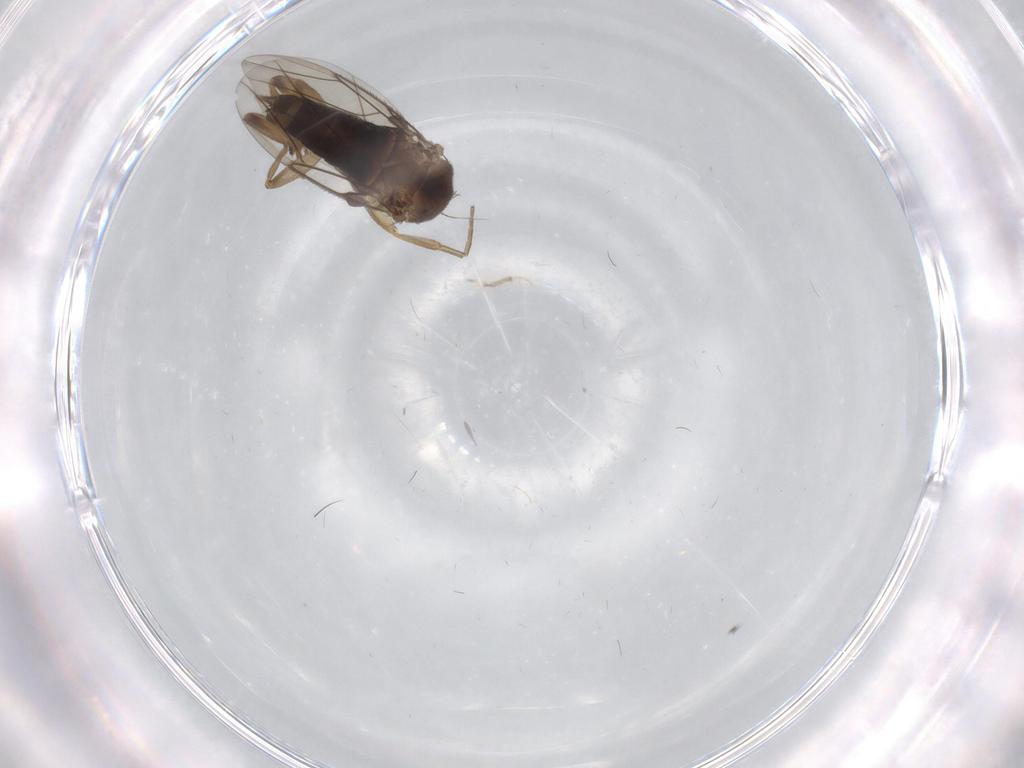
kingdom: Animalia
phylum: Arthropoda
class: Insecta
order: Diptera
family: Phoridae
